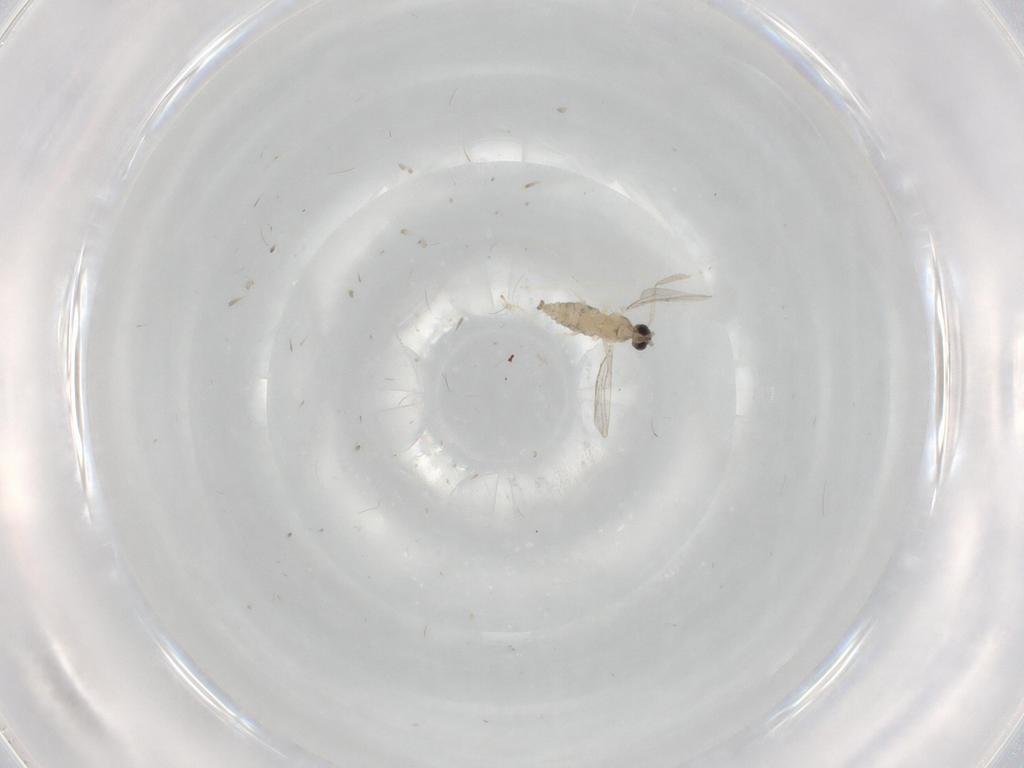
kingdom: Animalia
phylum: Arthropoda
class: Insecta
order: Diptera
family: Cecidomyiidae
